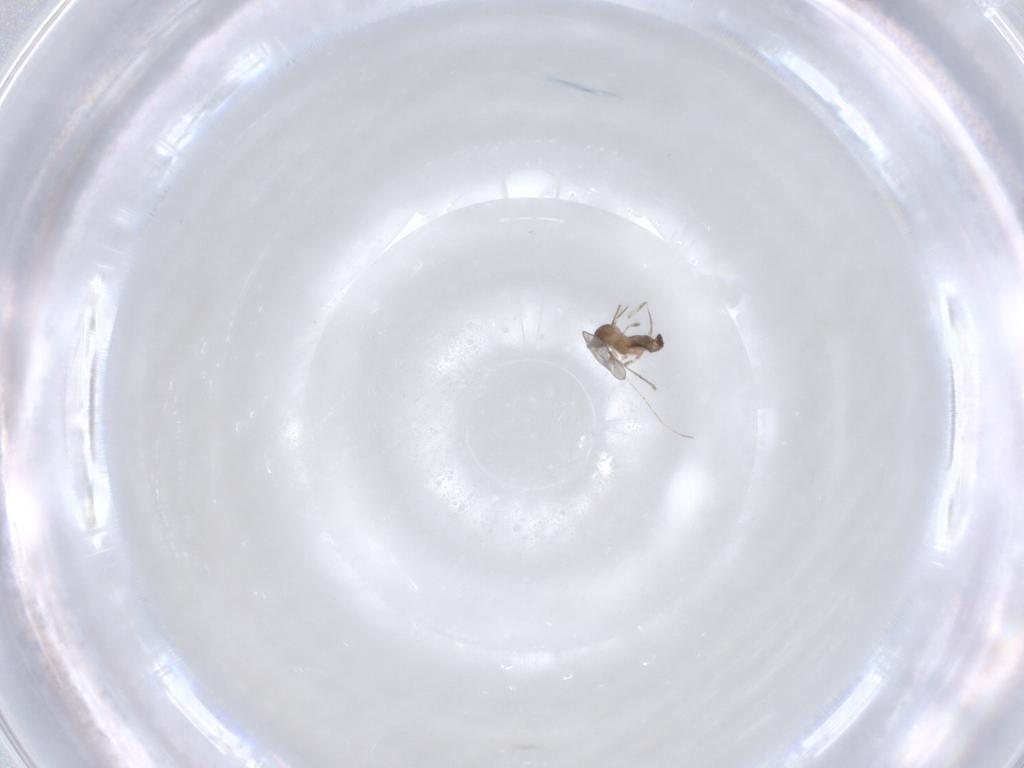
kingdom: Animalia
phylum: Arthropoda
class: Insecta
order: Diptera
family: Cecidomyiidae
